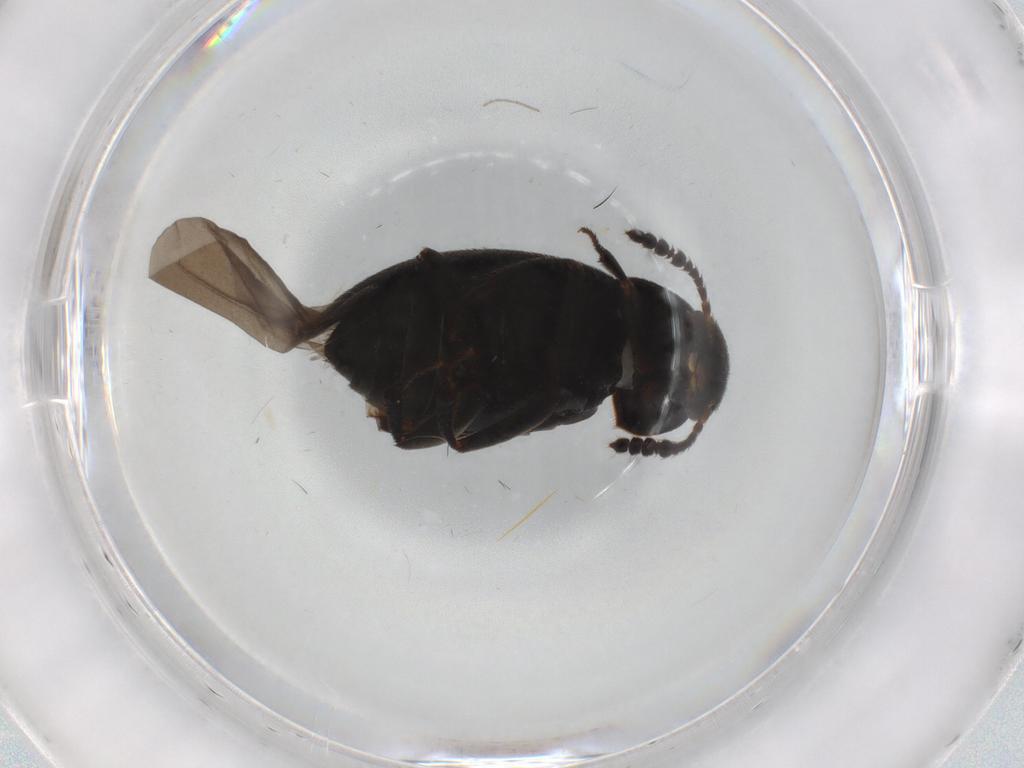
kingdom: Animalia
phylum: Arthropoda
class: Insecta
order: Coleoptera
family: Leiodidae
